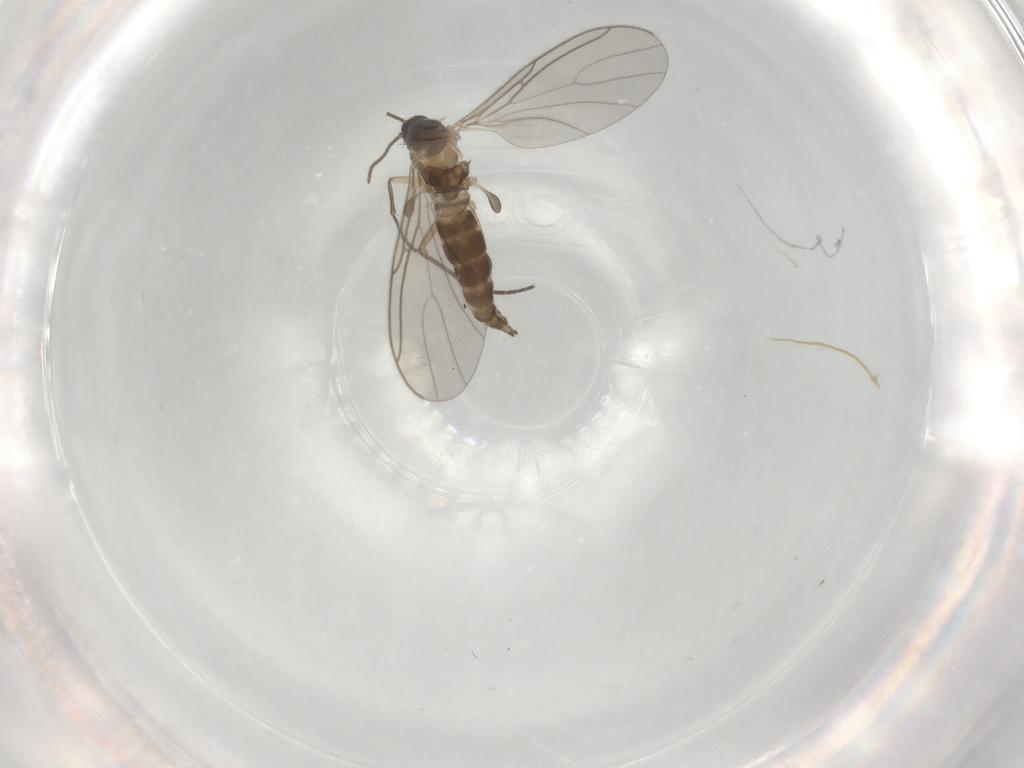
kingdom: Animalia
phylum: Arthropoda
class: Insecta
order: Diptera
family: Sciaridae
